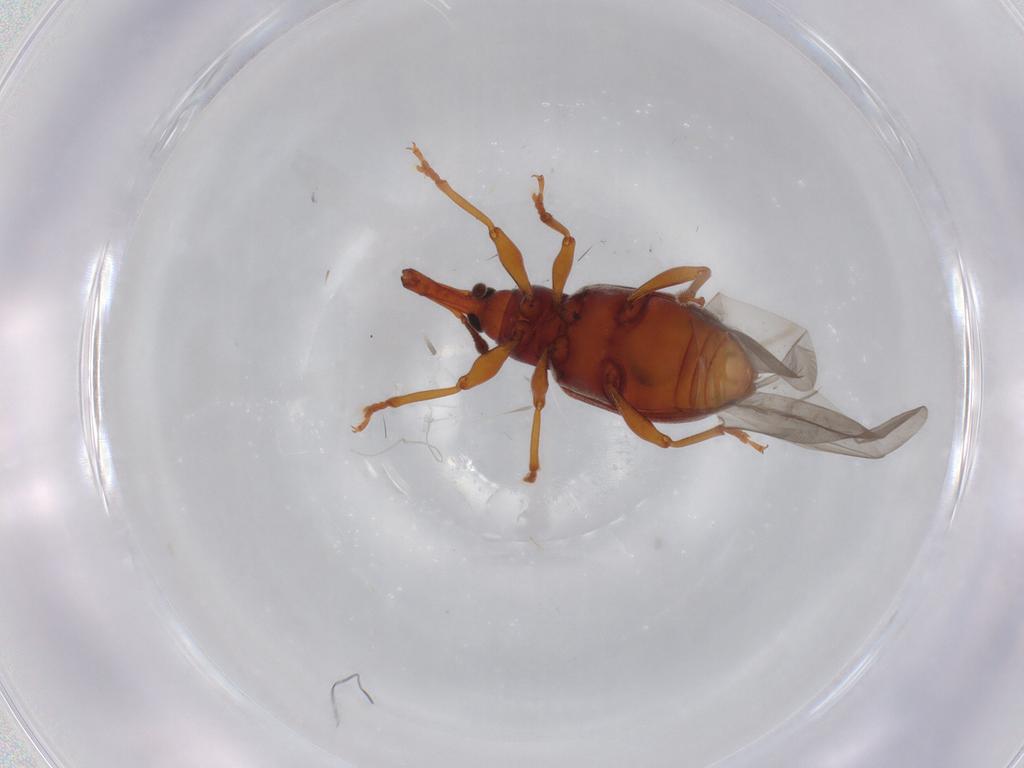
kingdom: Animalia
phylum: Arthropoda
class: Insecta
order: Coleoptera
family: Curculionidae
